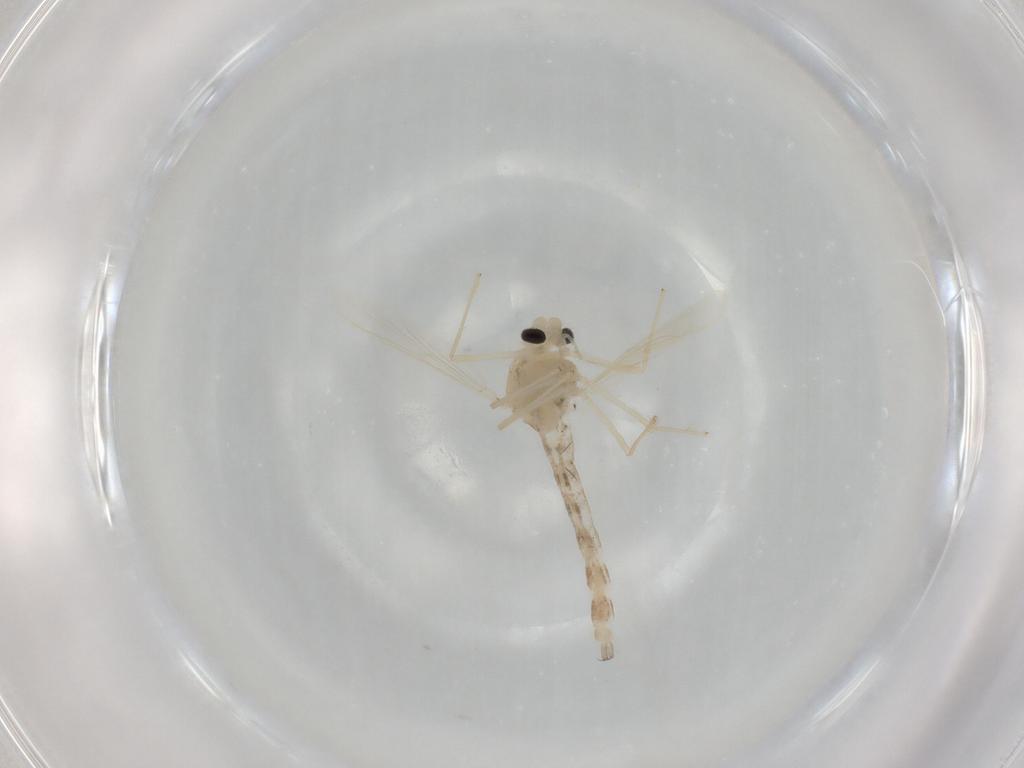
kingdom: Animalia
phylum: Arthropoda
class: Insecta
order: Diptera
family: Chironomidae
